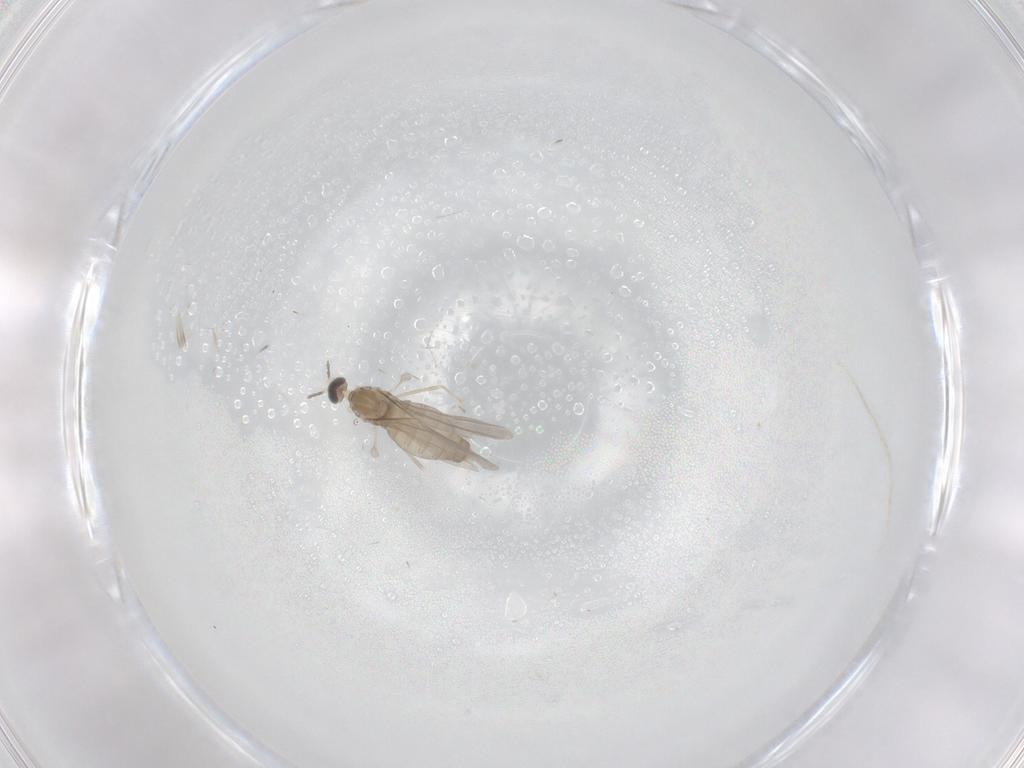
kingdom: Animalia
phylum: Arthropoda
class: Insecta
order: Diptera
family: Cecidomyiidae
